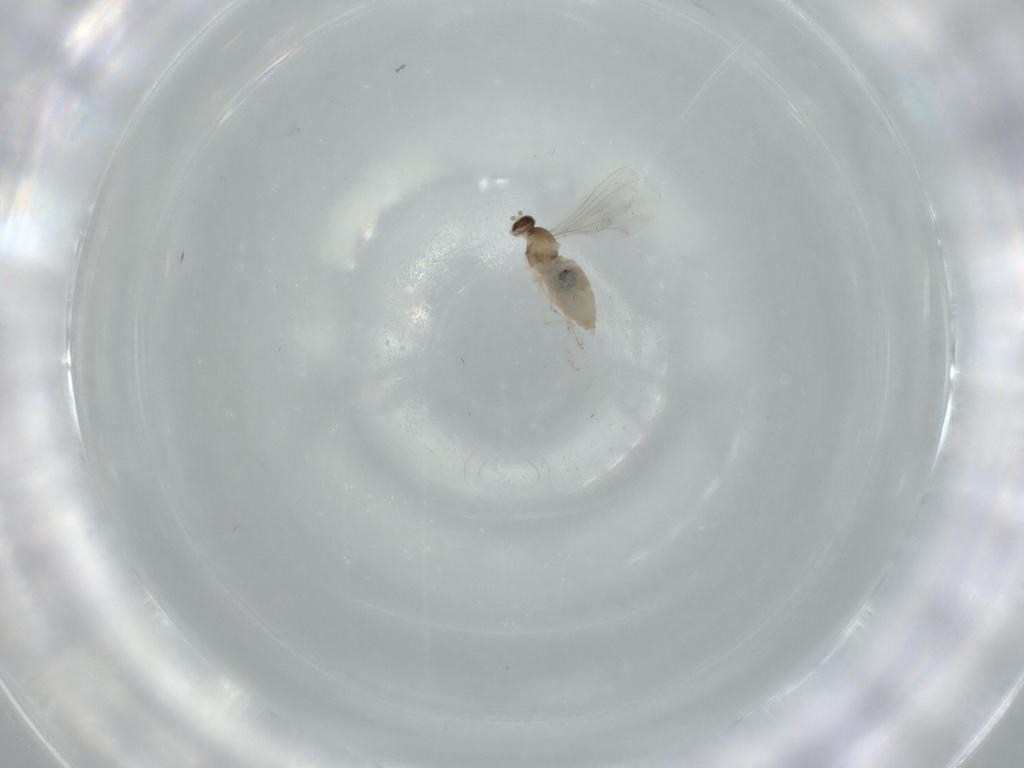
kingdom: Animalia
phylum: Arthropoda
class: Insecta
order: Diptera
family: Cecidomyiidae
